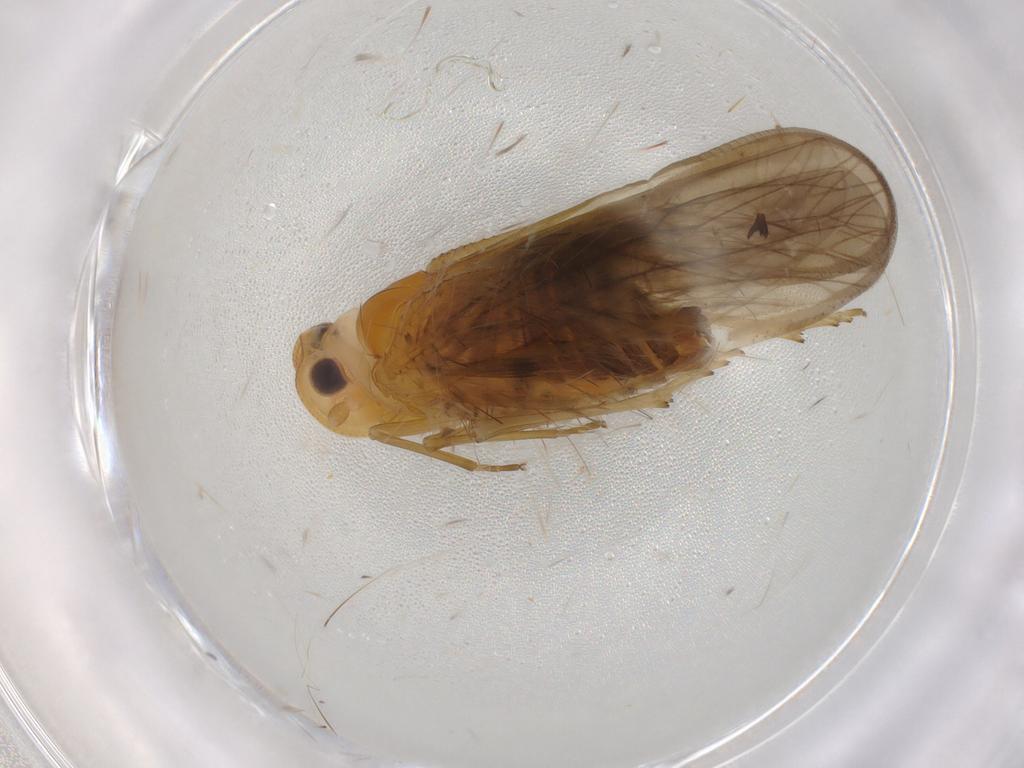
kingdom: Animalia
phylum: Arthropoda
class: Insecta
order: Hemiptera
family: Meenoplidae
